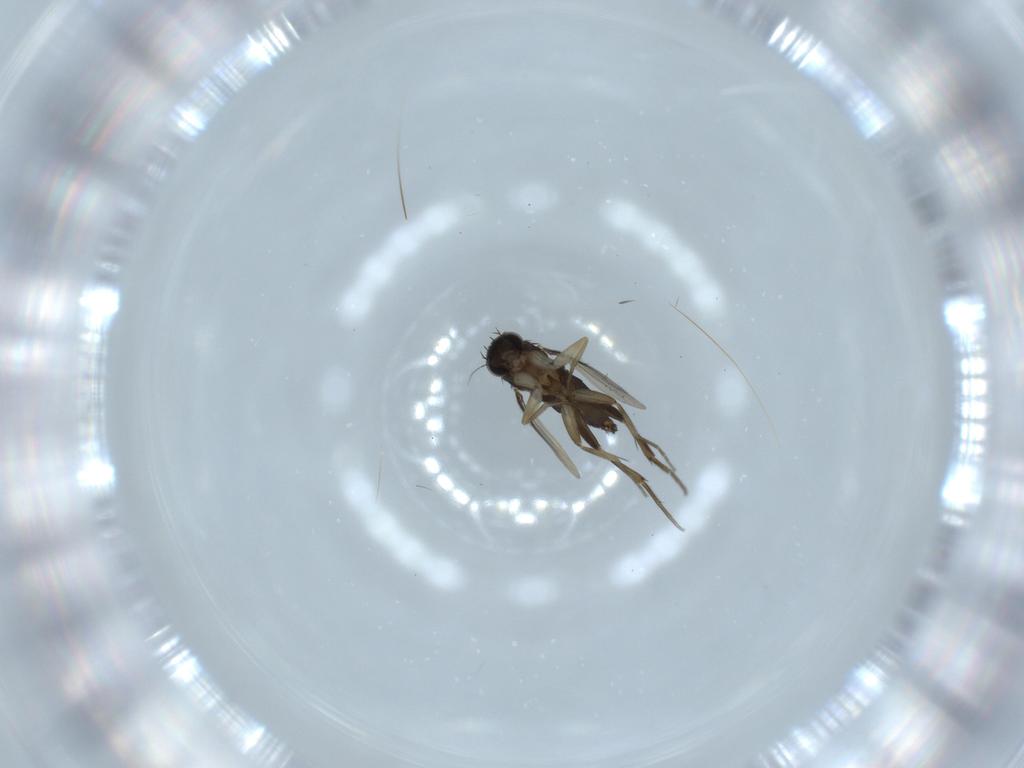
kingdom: Animalia
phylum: Arthropoda
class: Insecta
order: Diptera
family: Phoridae
